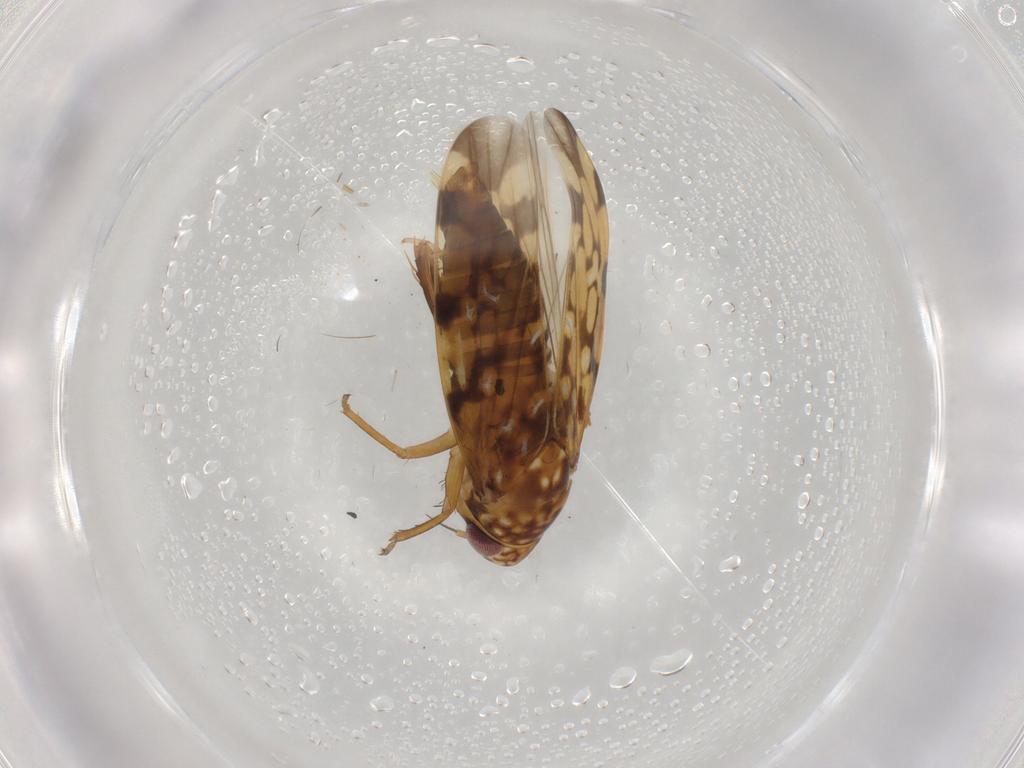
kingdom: Animalia
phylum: Arthropoda
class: Insecta
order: Hemiptera
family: Cicadellidae
